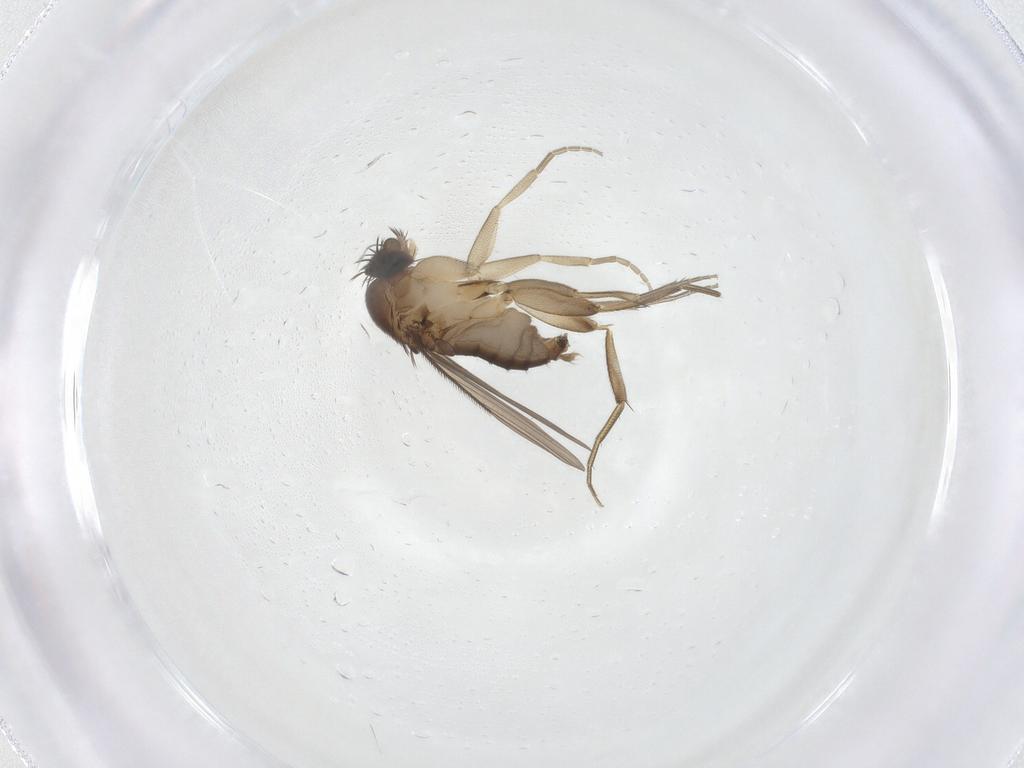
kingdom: Animalia
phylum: Arthropoda
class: Insecta
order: Diptera
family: Phoridae
